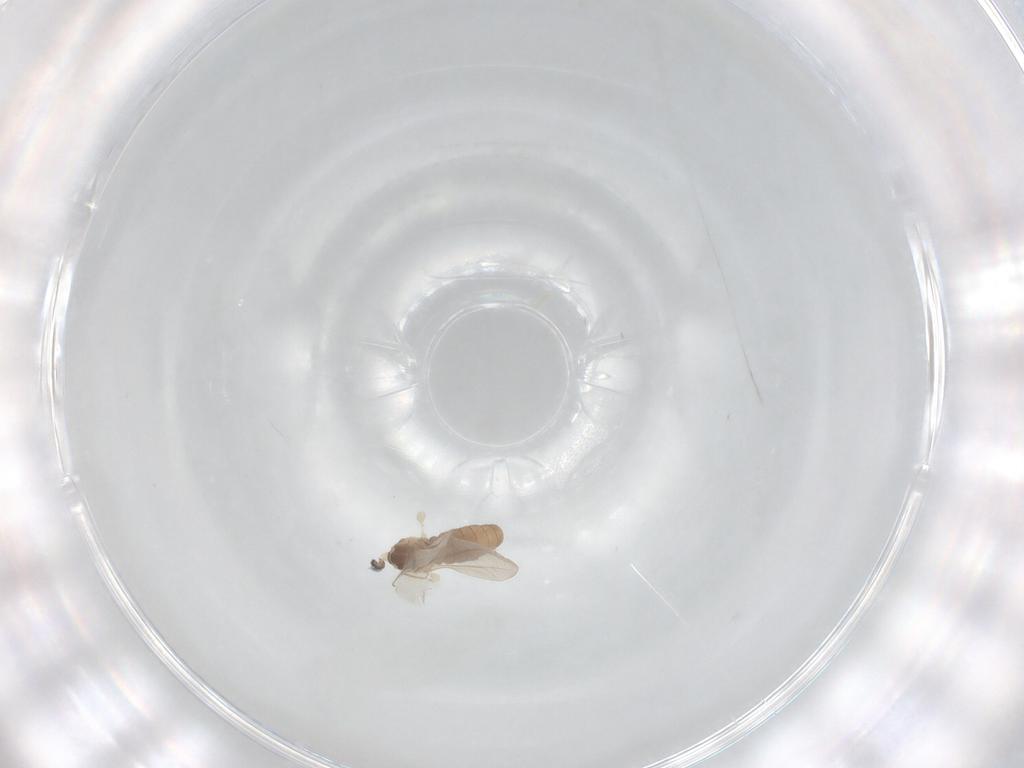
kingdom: Animalia
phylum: Arthropoda
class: Insecta
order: Diptera
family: Cecidomyiidae
